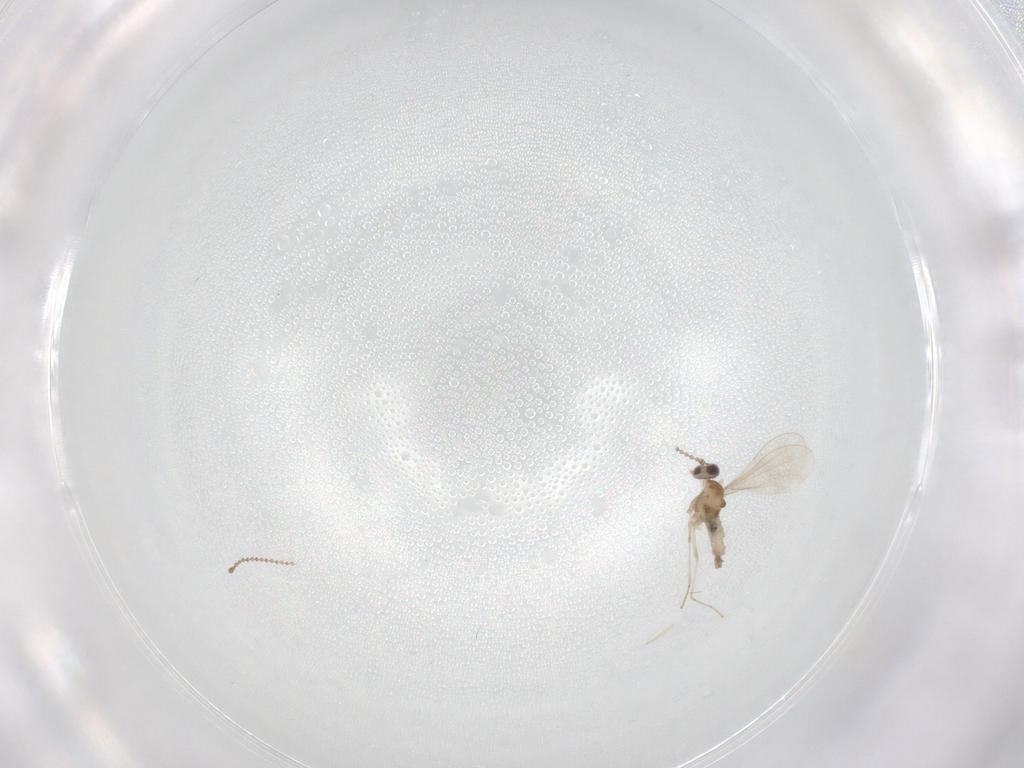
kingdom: Animalia
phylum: Arthropoda
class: Insecta
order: Diptera
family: Cecidomyiidae
